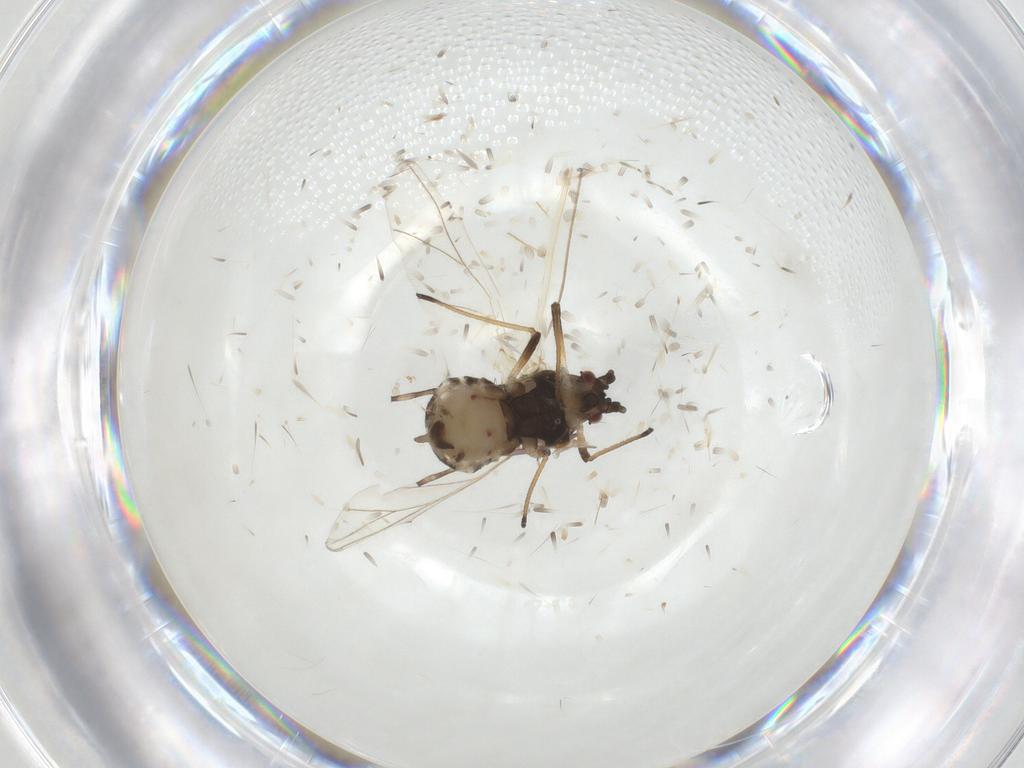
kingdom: Animalia
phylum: Arthropoda
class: Insecta
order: Hemiptera
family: Aphididae
